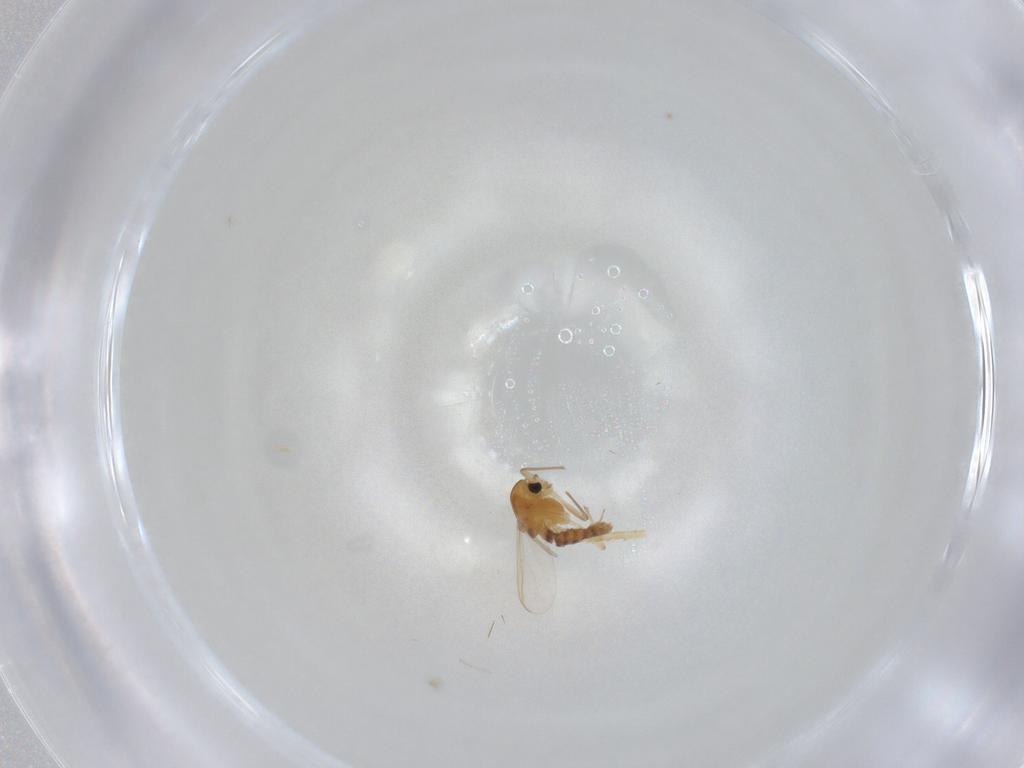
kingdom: Animalia
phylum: Arthropoda
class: Insecta
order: Diptera
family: Chironomidae
